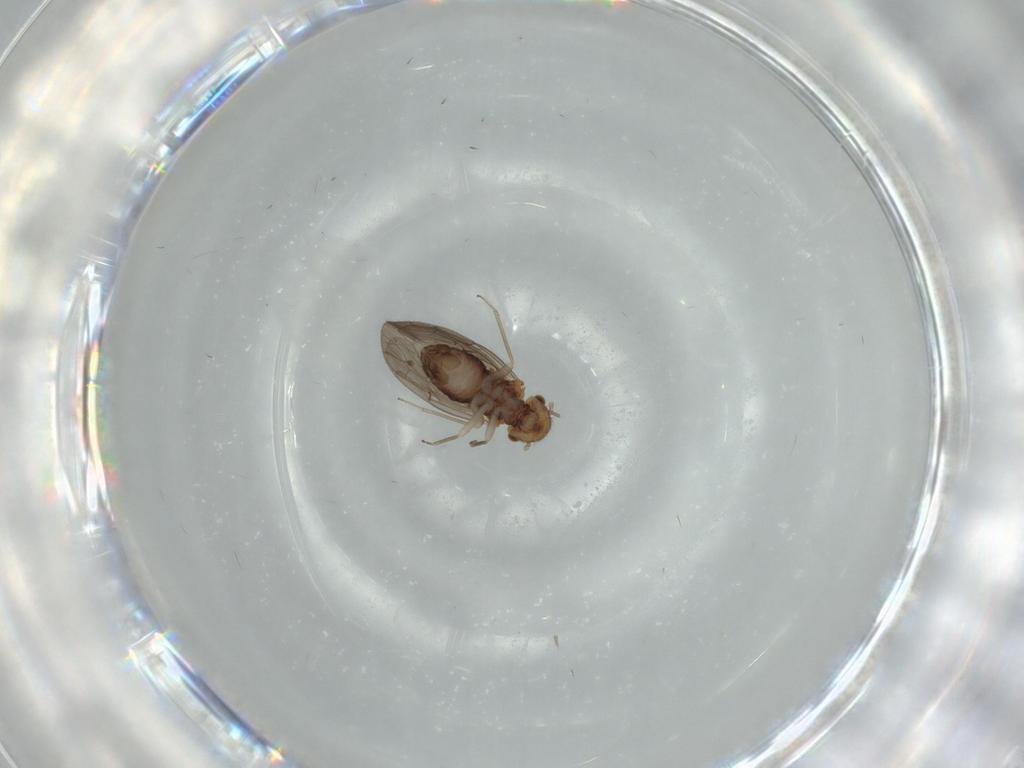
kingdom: Animalia
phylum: Arthropoda
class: Insecta
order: Psocodea
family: Ectopsocidae
